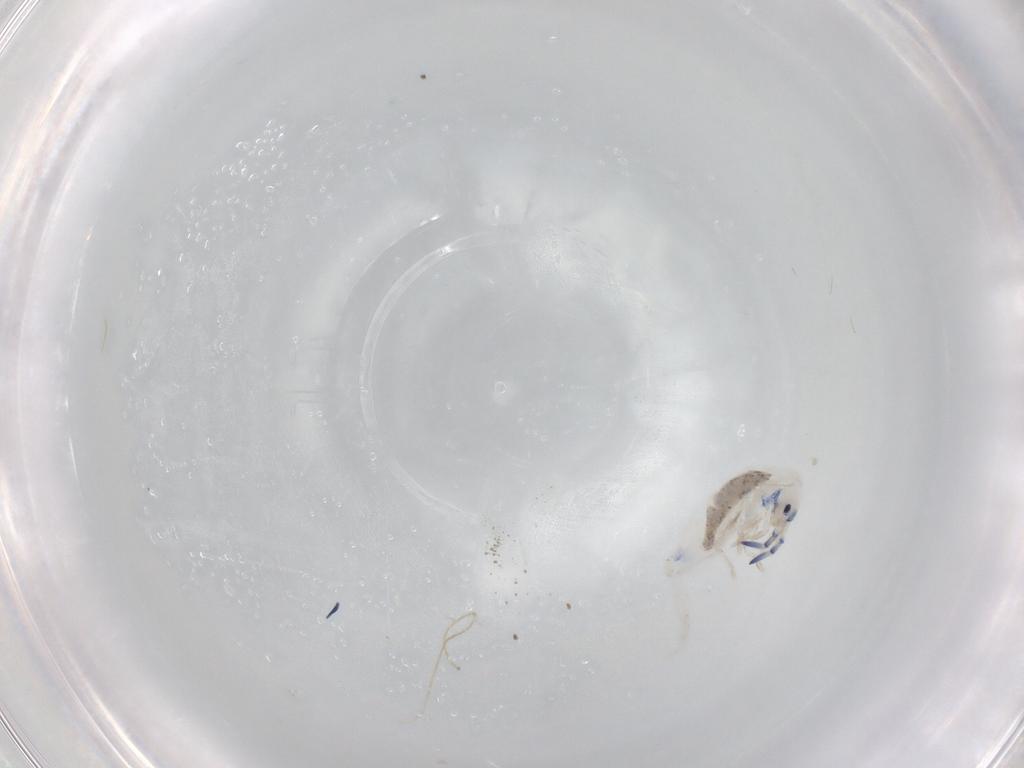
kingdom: Animalia
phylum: Arthropoda
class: Collembola
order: Entomobryomorpha
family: Entomobryidae
